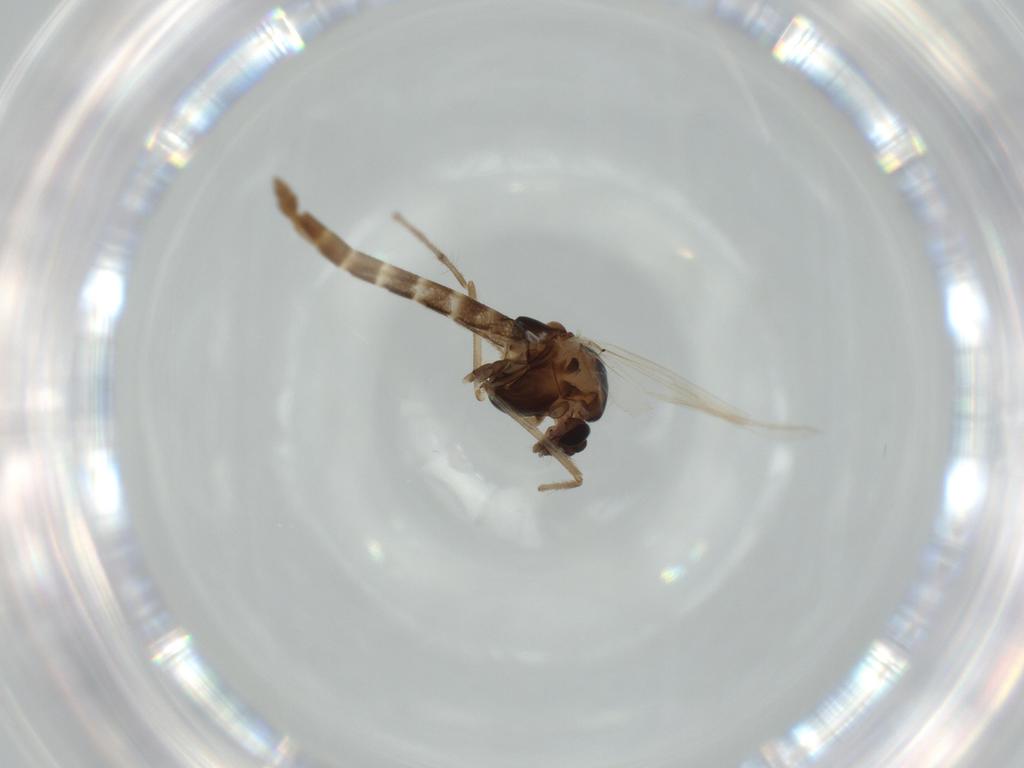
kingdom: Animalia
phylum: Arthropoda
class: Insecta
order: Diptera
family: Chironomidae
